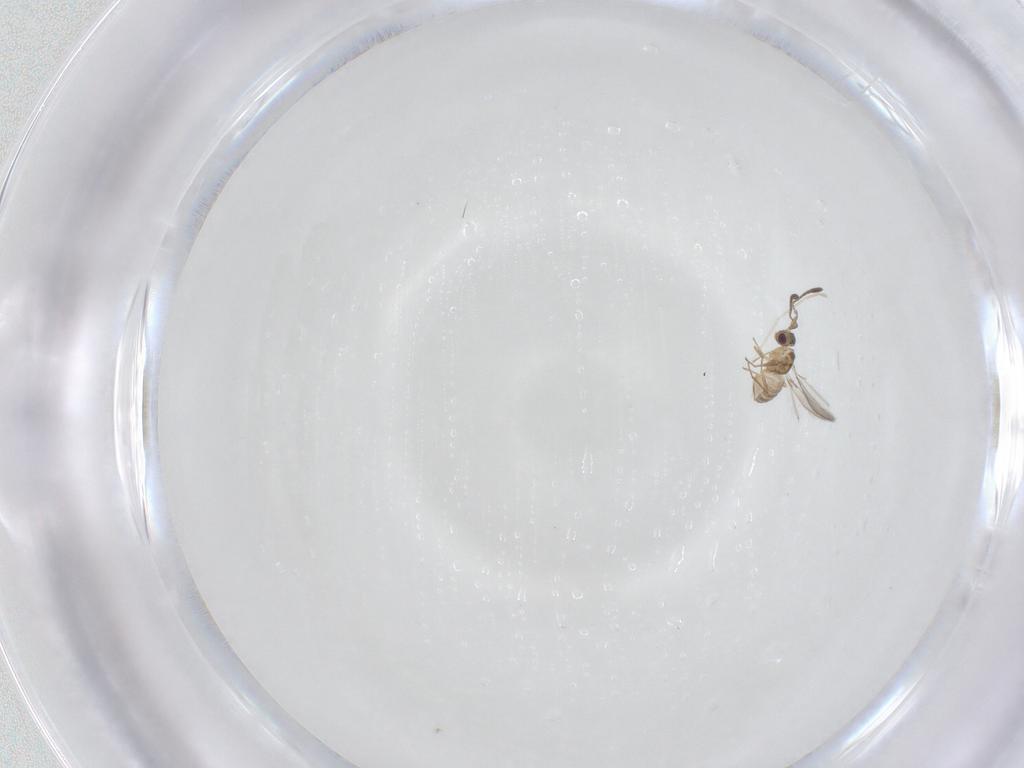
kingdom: Animalia
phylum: Arthropoda
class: Insecta
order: Hymenoptera
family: Mymaridae
